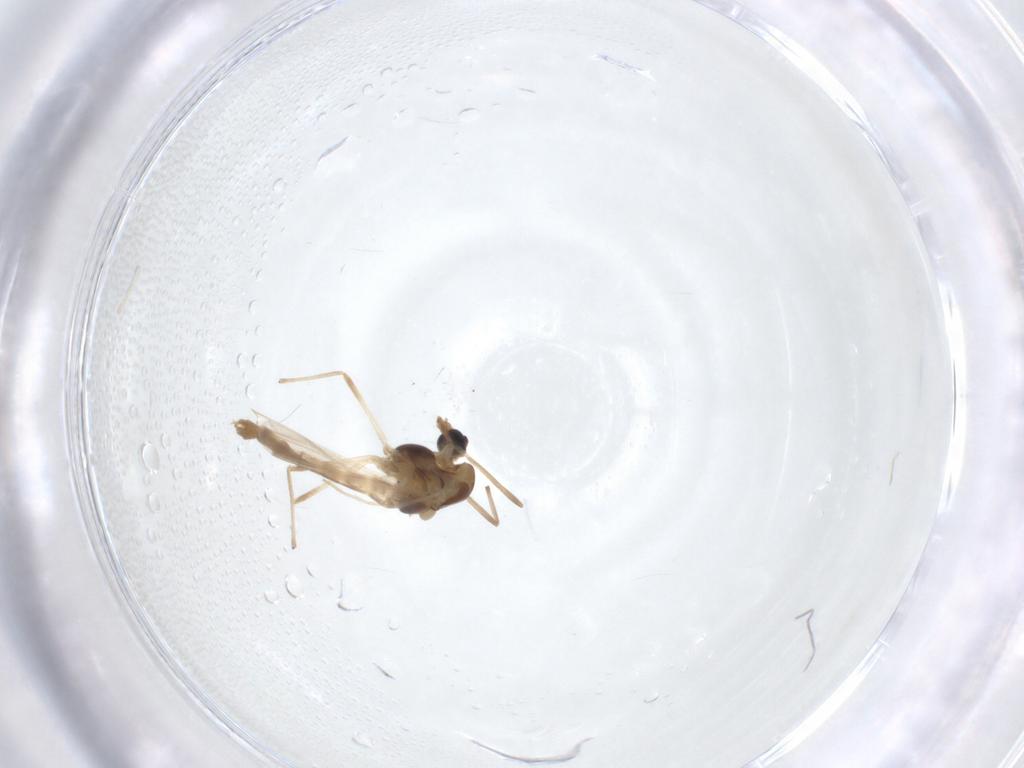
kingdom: Animalia
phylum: Arthropoda
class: Insecta
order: Diptera
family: Chironomidae
